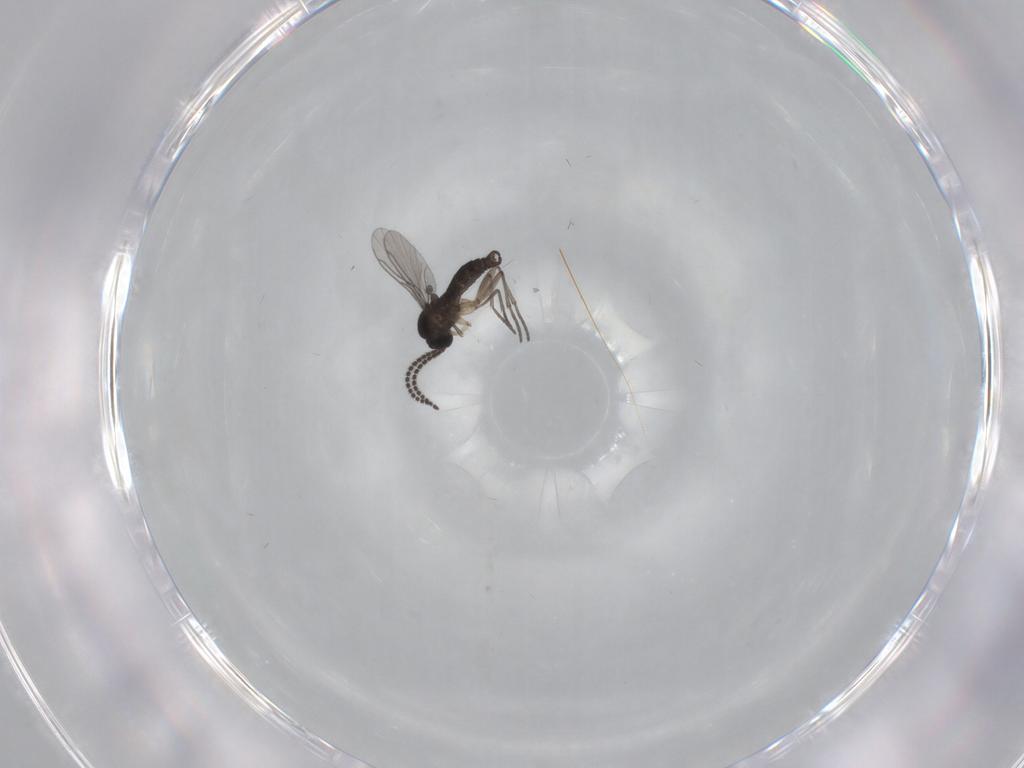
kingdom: Animalia
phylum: Arthropoda
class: Insecta
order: Diptera
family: Sciaridae
